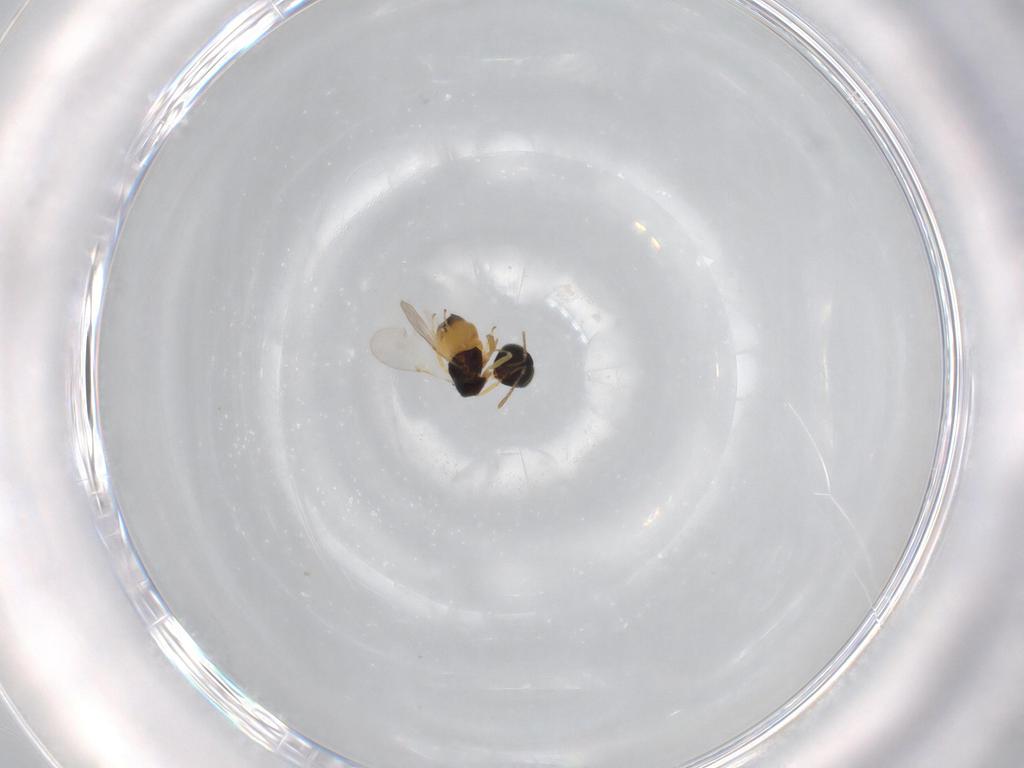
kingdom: Animalia
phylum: Arthropoda
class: Insecta
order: Hymenoptera
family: Encyrtidae
